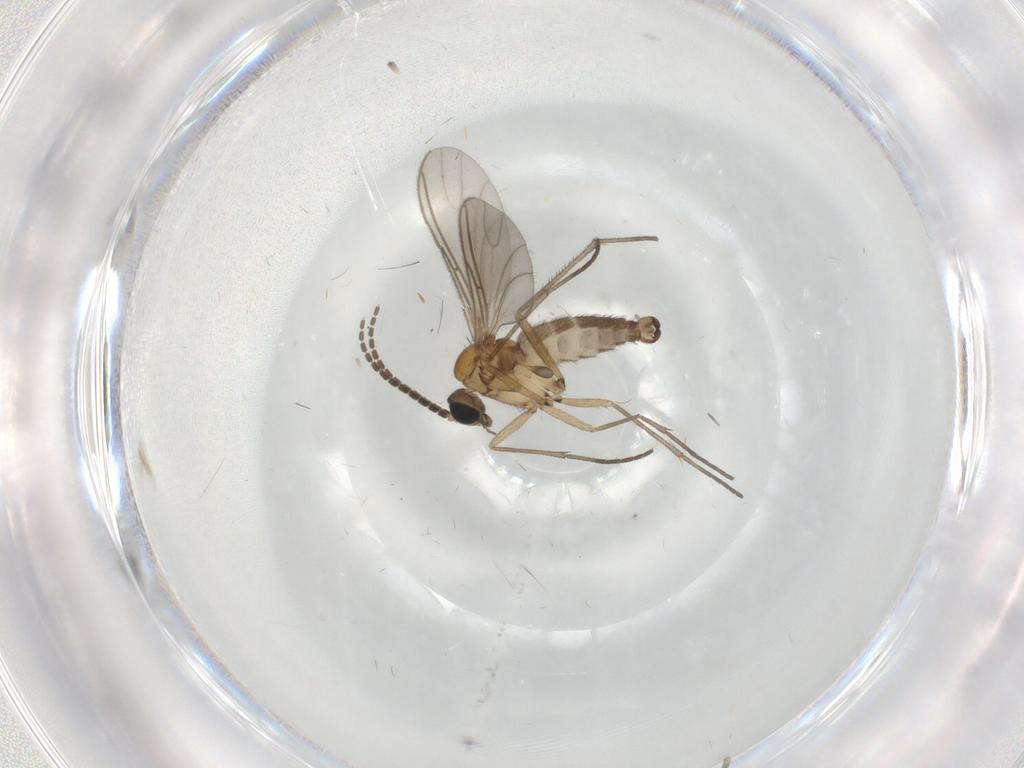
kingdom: Animalia
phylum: Arthropoda
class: Insecta
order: Diptera
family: Sciaridae
